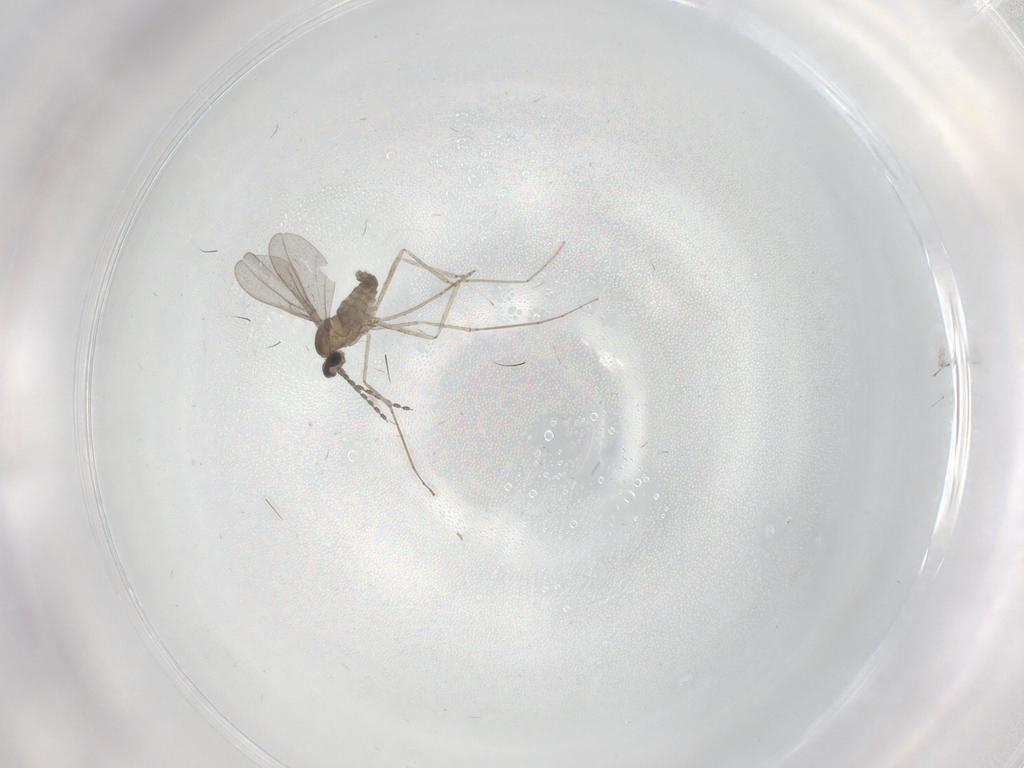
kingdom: Animalia
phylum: Arthropoda
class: Insecta
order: Diptera
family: Cecidomyiidae
